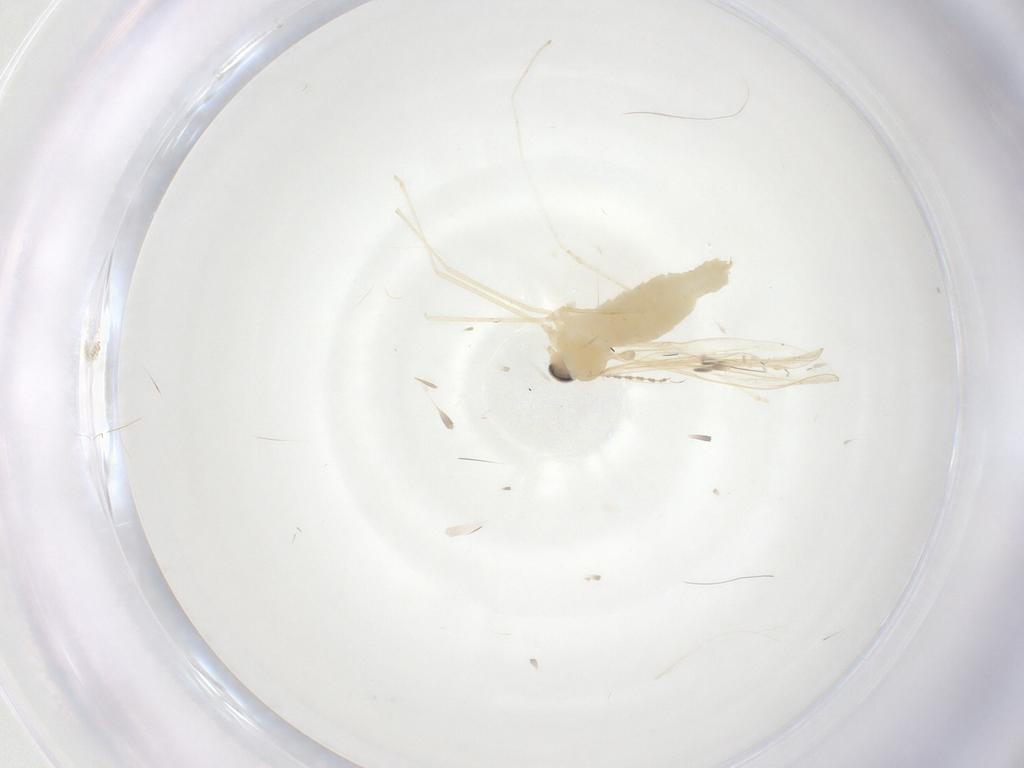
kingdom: Animalia
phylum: Arthropoda
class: Insecta
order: Diptera
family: Cecidomyiidae
